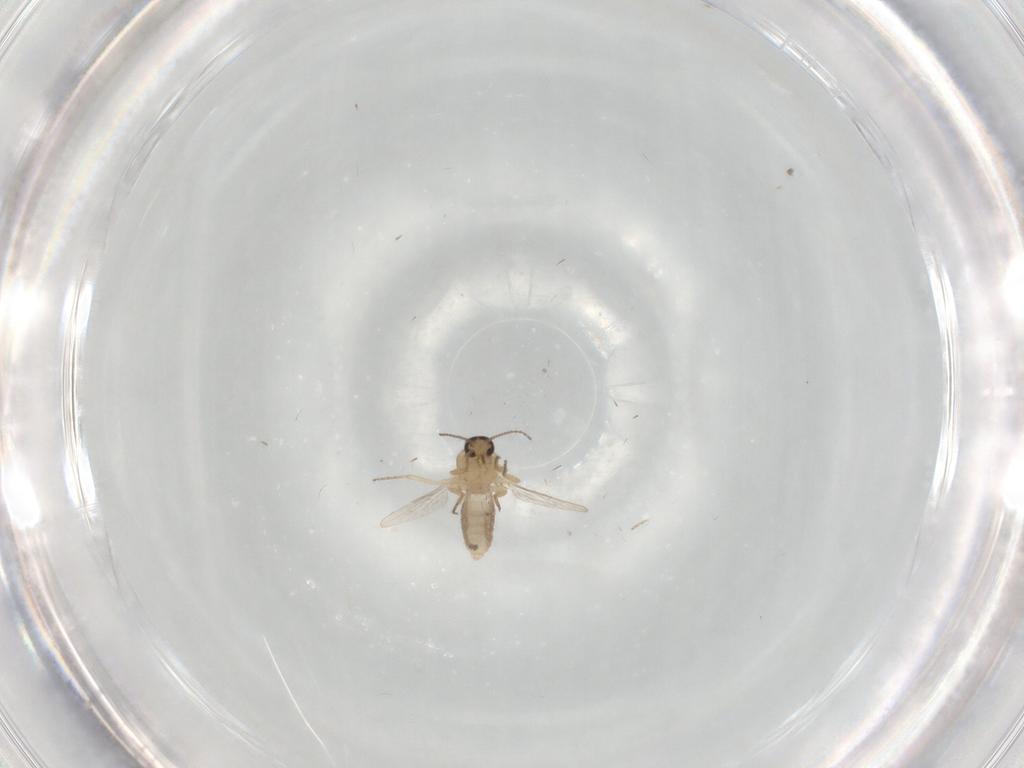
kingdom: Animalia
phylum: Arthropoda
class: Insecta
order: Diptera
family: Ceratopogonidae
